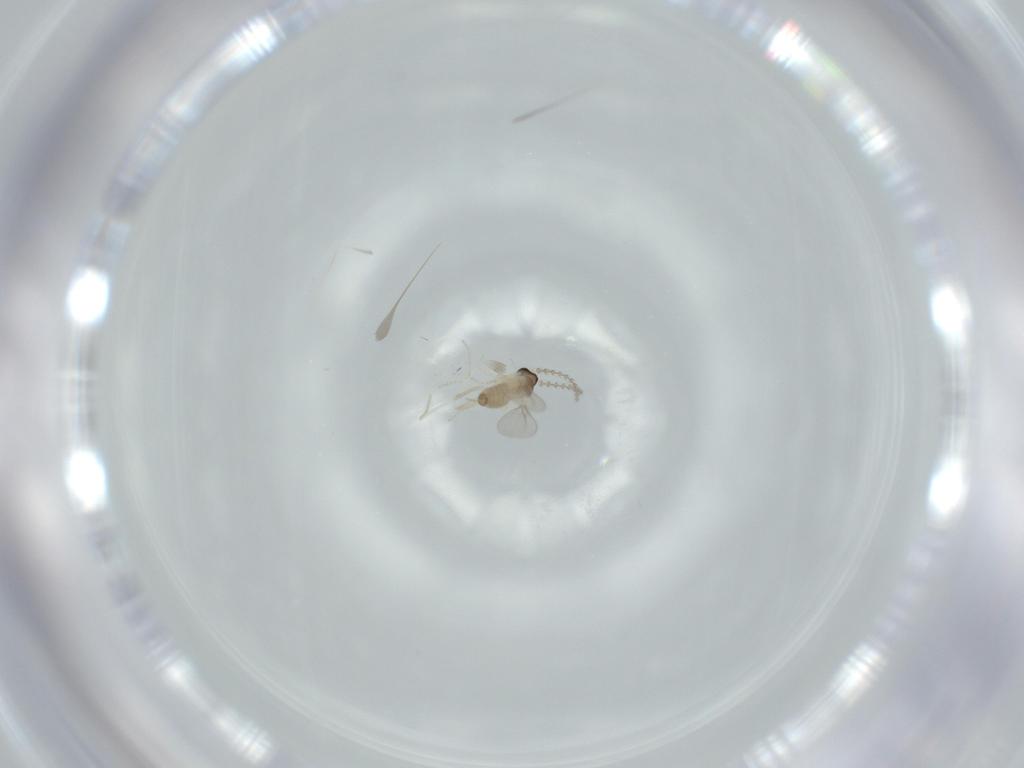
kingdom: Animalia
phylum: Arthropoda
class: Insecta
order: Diptera
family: Cecidomyiidae
